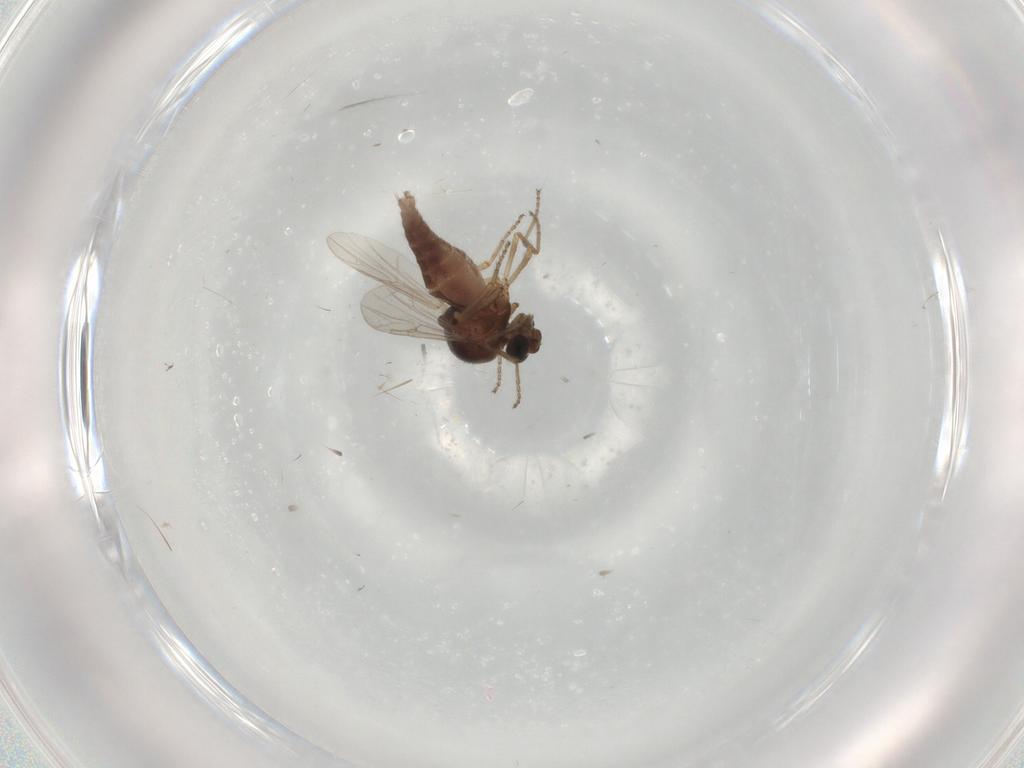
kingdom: Animalia
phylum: Arthropoda
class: Insecta
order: Diptera
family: Ceratopogonidae
